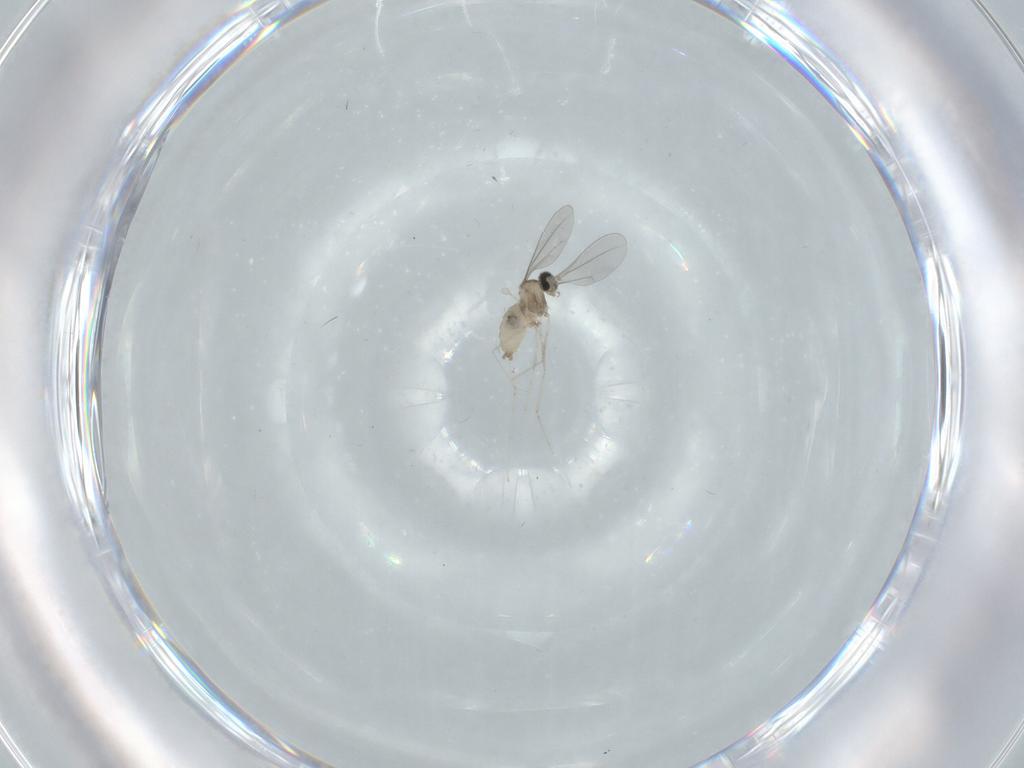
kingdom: Animalia
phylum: Arthropoda
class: Insecta
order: Diptera
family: Cecidomyiidae
